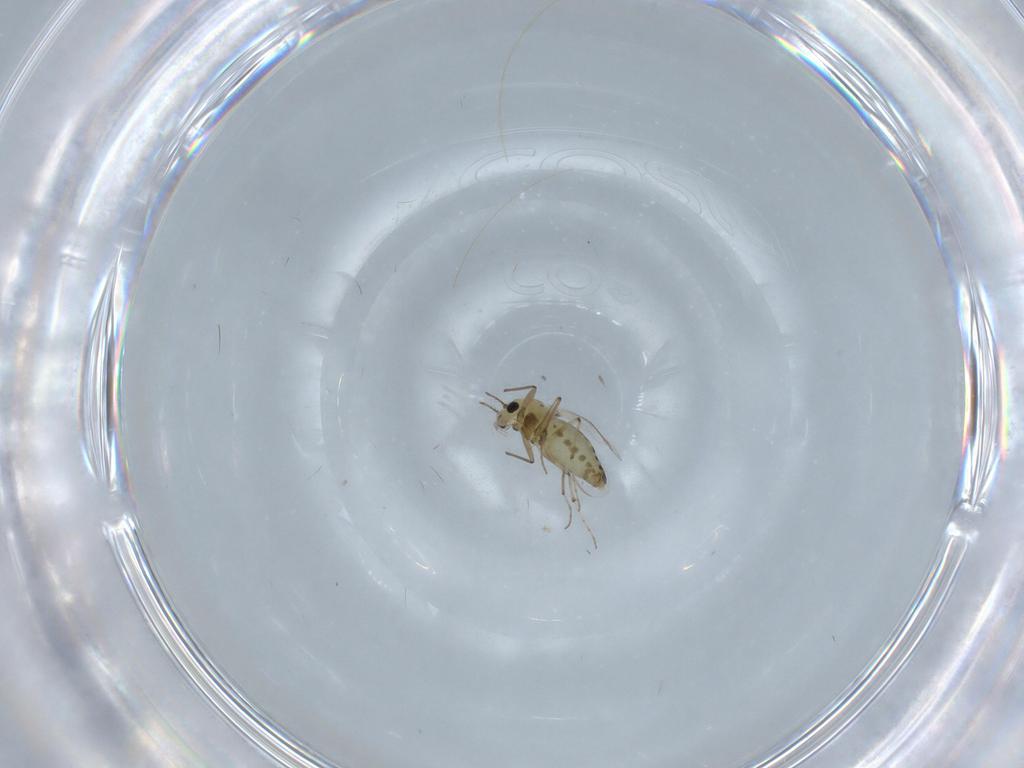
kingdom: Animalia
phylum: Arthropoda
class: Insecta
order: Diptera
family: Chironomidae
